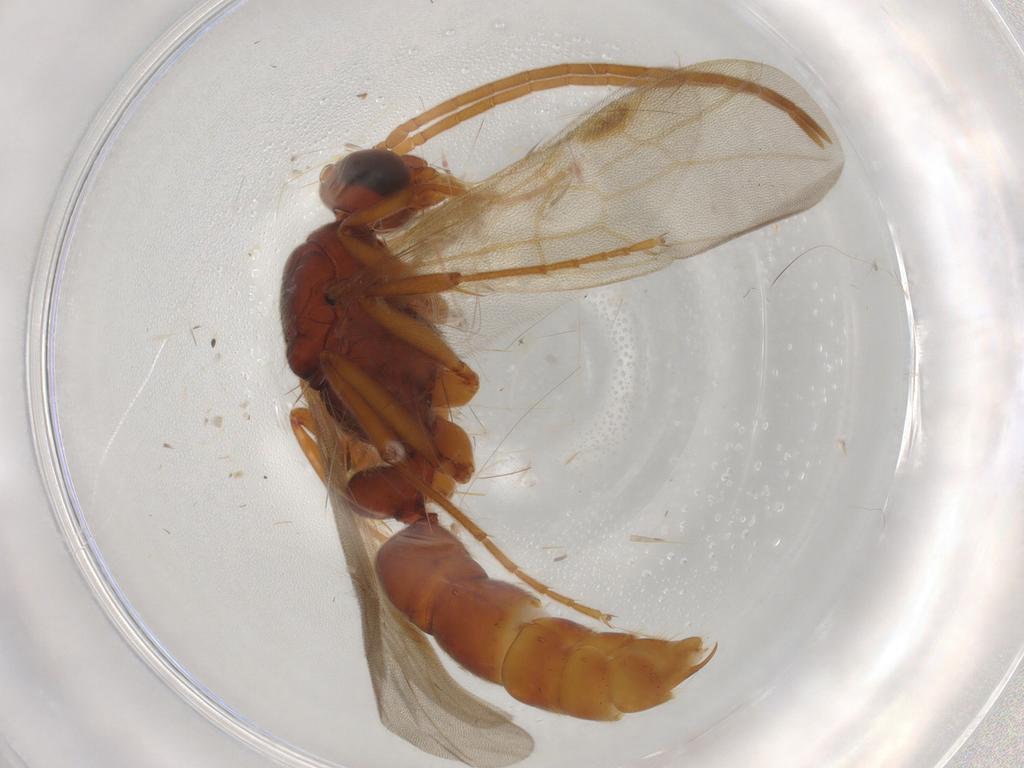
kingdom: Animalia
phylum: Arthropoda
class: Insecta
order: Hymenoptera
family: Formicidae
